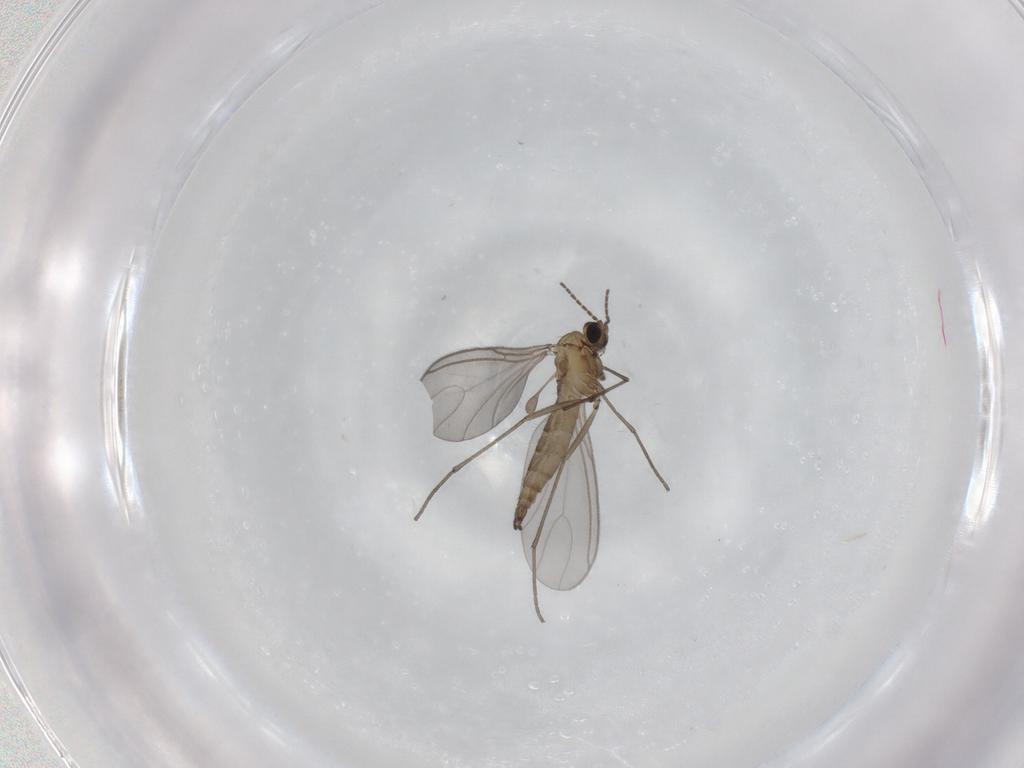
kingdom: Animalia
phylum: Arthropoda
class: Insecta
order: Diptera
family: Sciaridae
